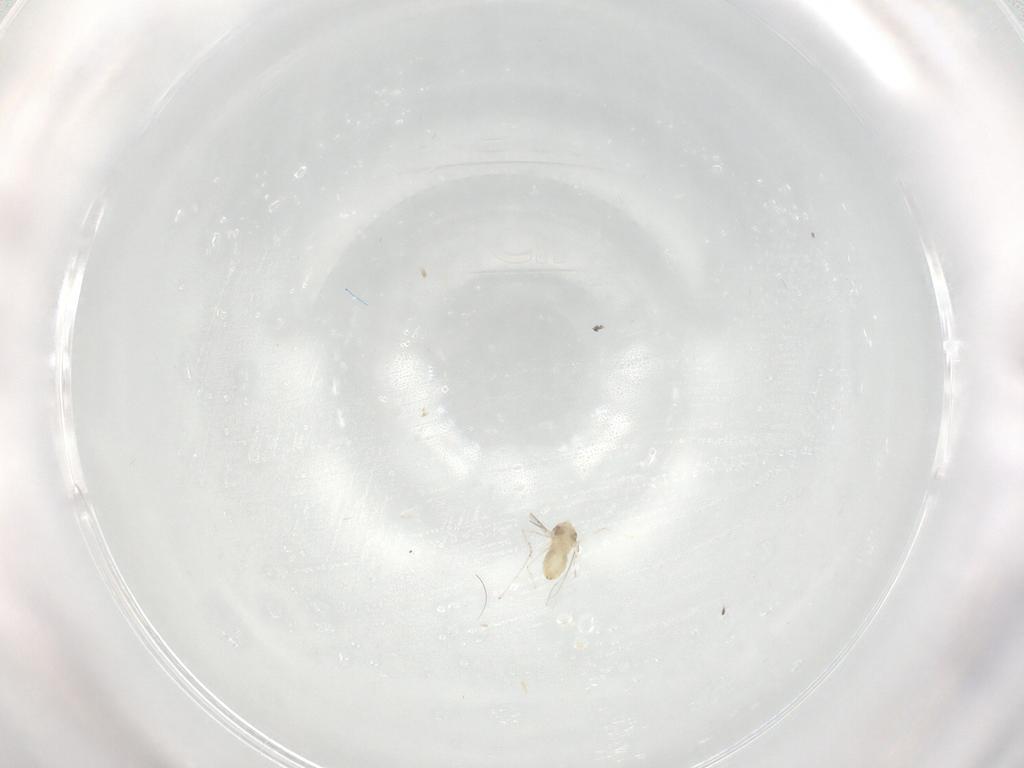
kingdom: Animalia
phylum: Arthropoda
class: Insecta
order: Diptera
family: Cecidomyiidae
